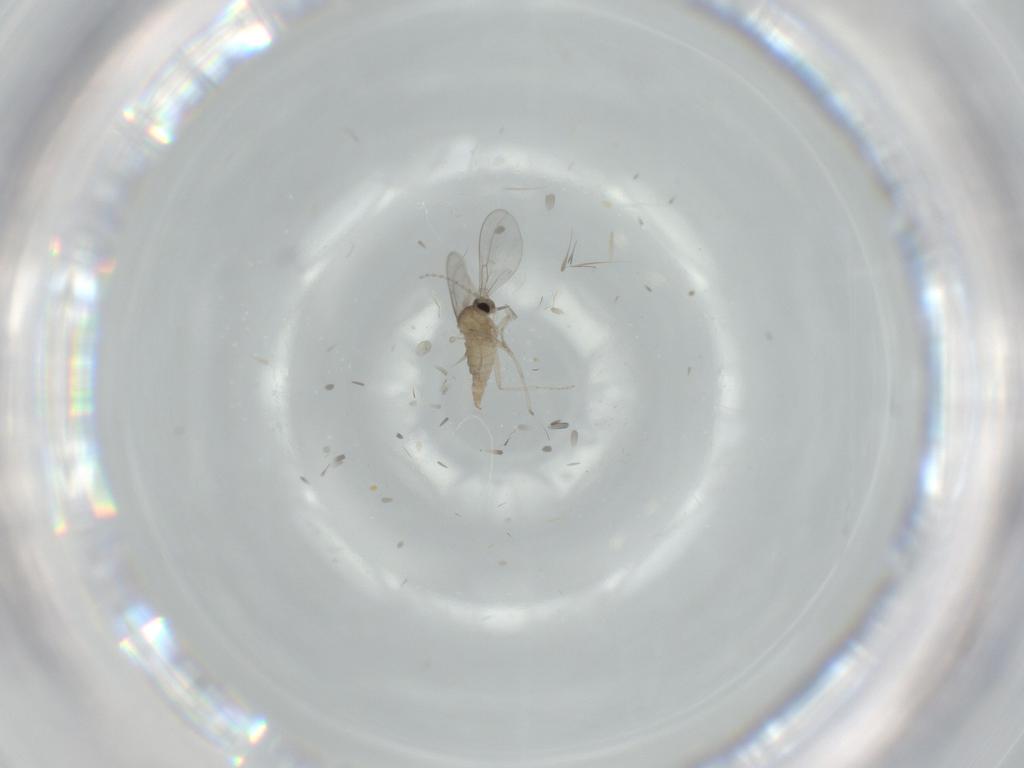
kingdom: Animalia
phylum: Arthropoda
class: Insecta
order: Diptera
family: Cecidomyiidae
